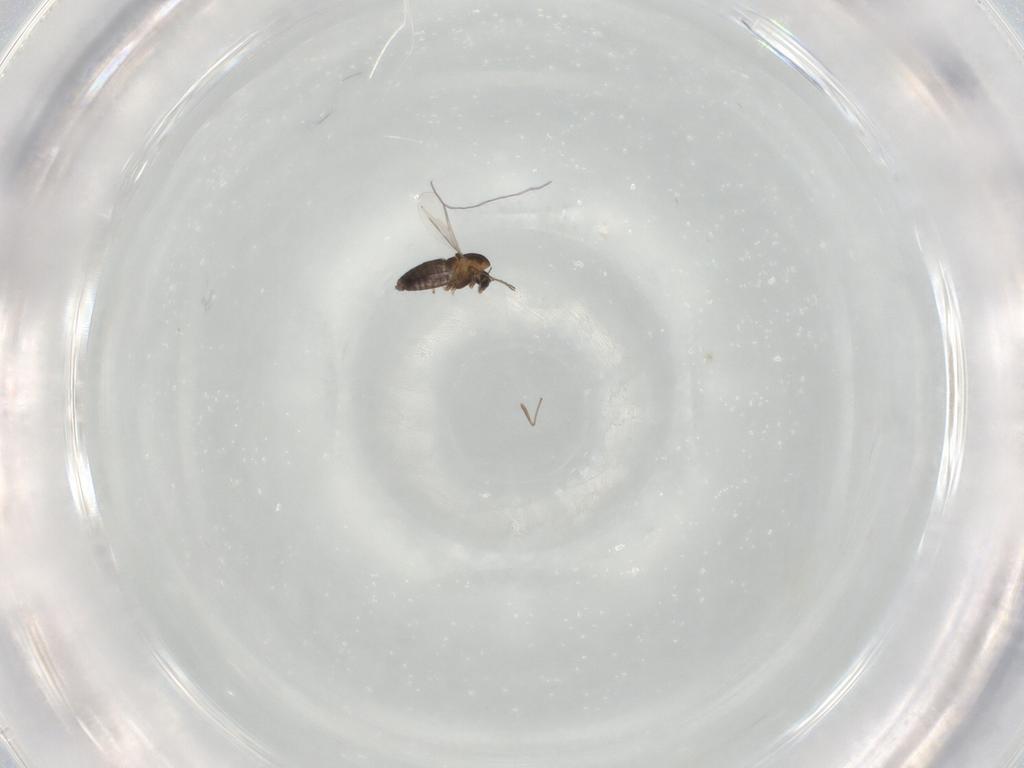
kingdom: Animalia
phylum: Arthropoda
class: Insecta
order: Diptera
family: Chironomidae
